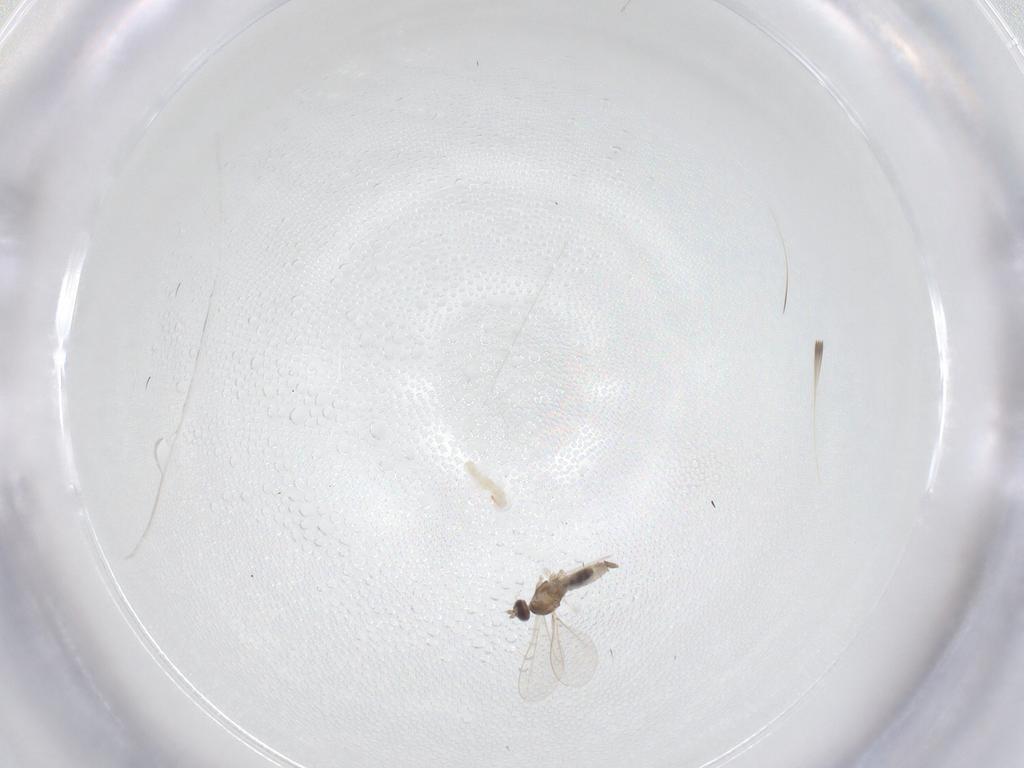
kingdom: Animalia
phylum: Arthropoda
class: Insecta
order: Diptera
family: Cecidomyiidae
